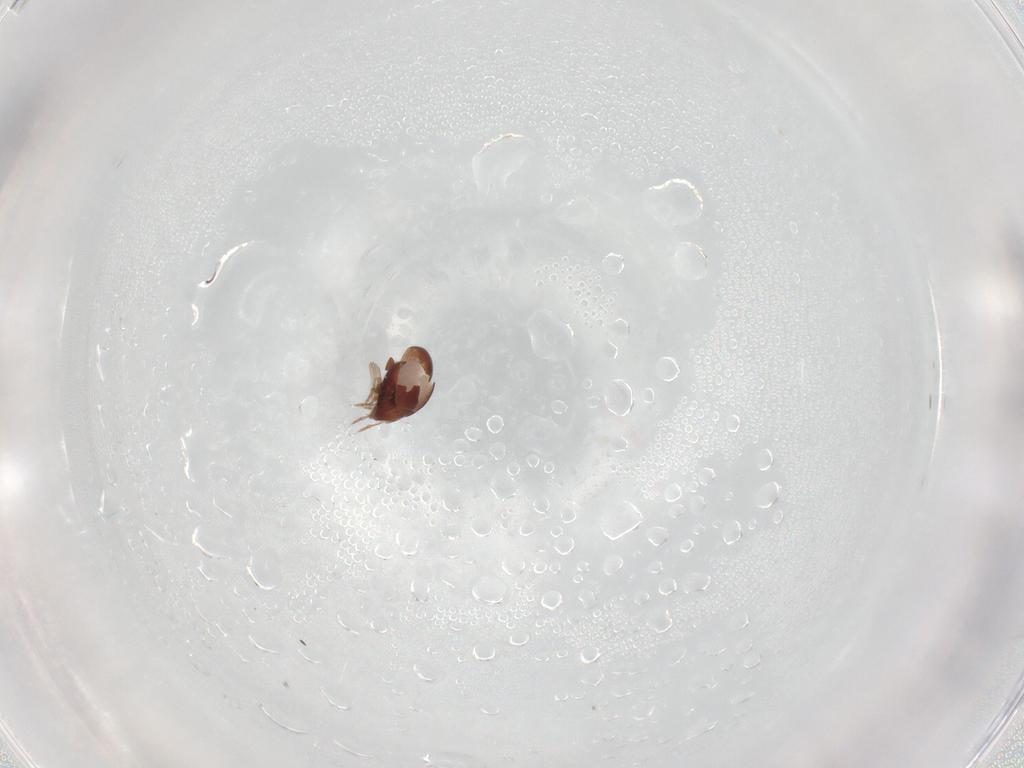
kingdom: Animalia
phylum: Arthropoda
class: Arachnida
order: Sarcoptiformes
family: Galumnidae
